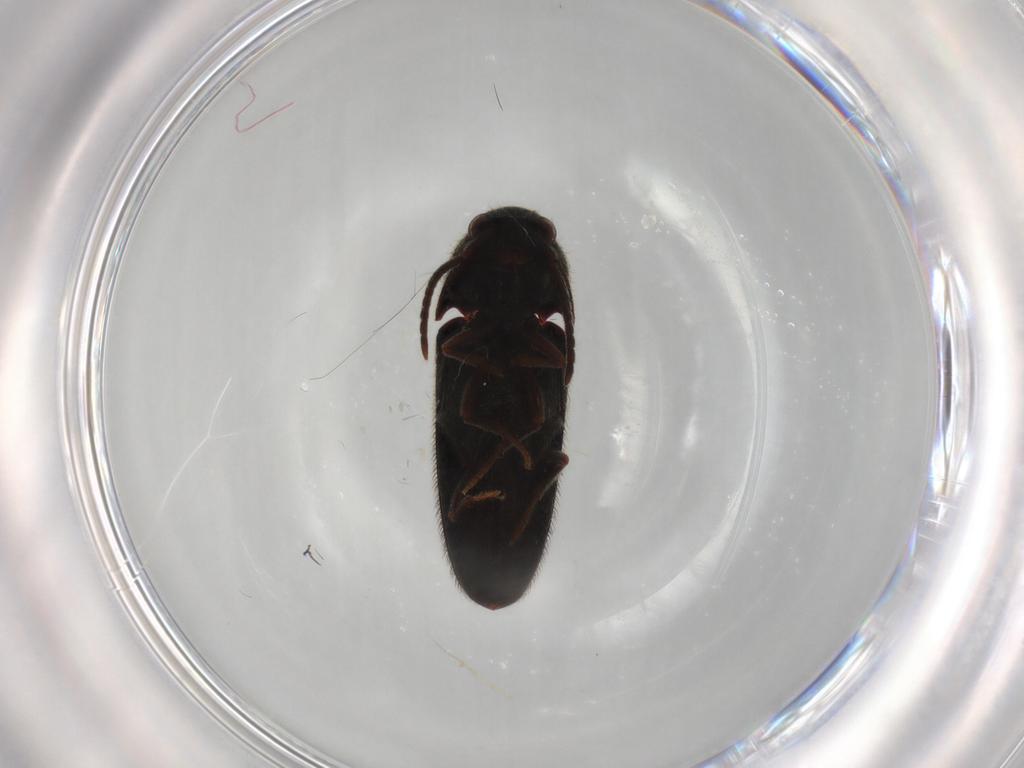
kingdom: Animalia
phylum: Arthropoda
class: Insecta
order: Coleoptera
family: Eucnemidae
